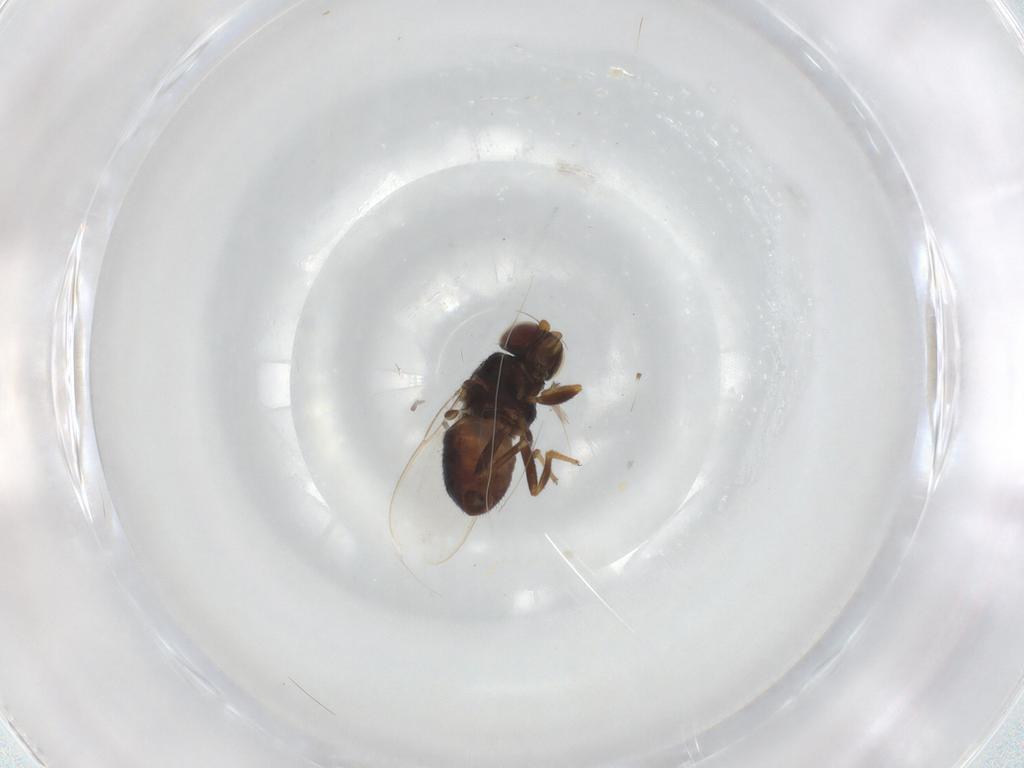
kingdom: Animalia
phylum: Arthropoda
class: Insecta
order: Diptera
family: Chloropidae
